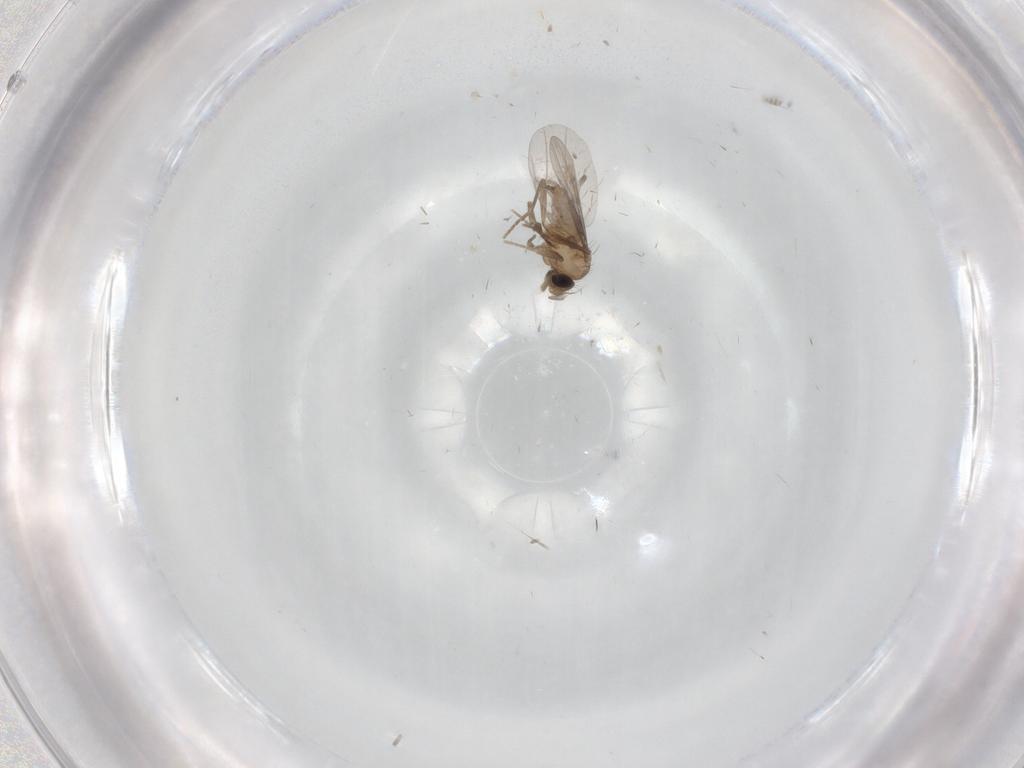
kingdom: Animalia
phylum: Arthropoda
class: Insecta
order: Diptera
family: Psychodidae
